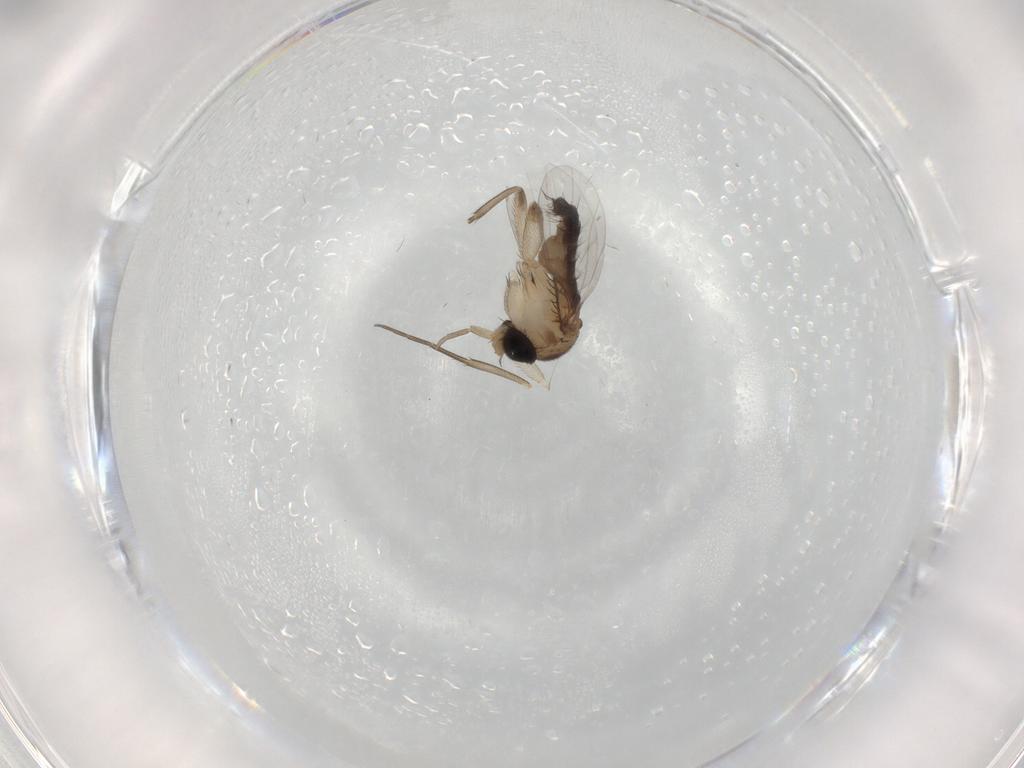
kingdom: Animalia
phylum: Arthropoda
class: Insecta
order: Diptera
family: Phoridae
